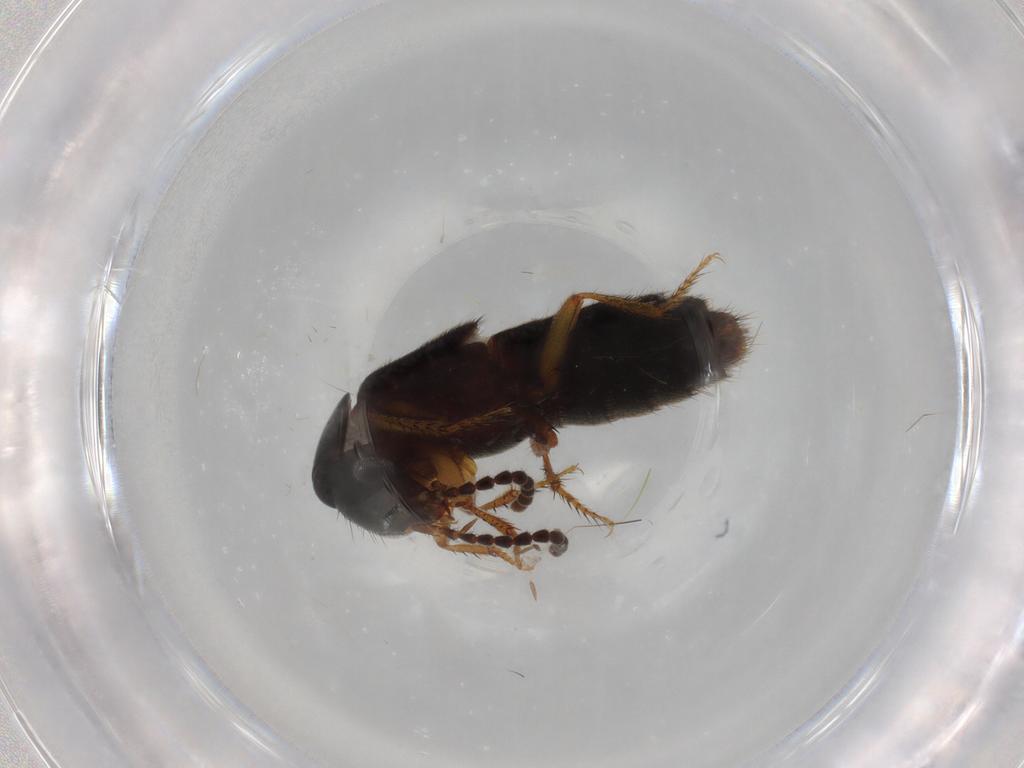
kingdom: Animalia
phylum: Arthropoda
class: Insecta
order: Coleoptera
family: Staphylinidae
